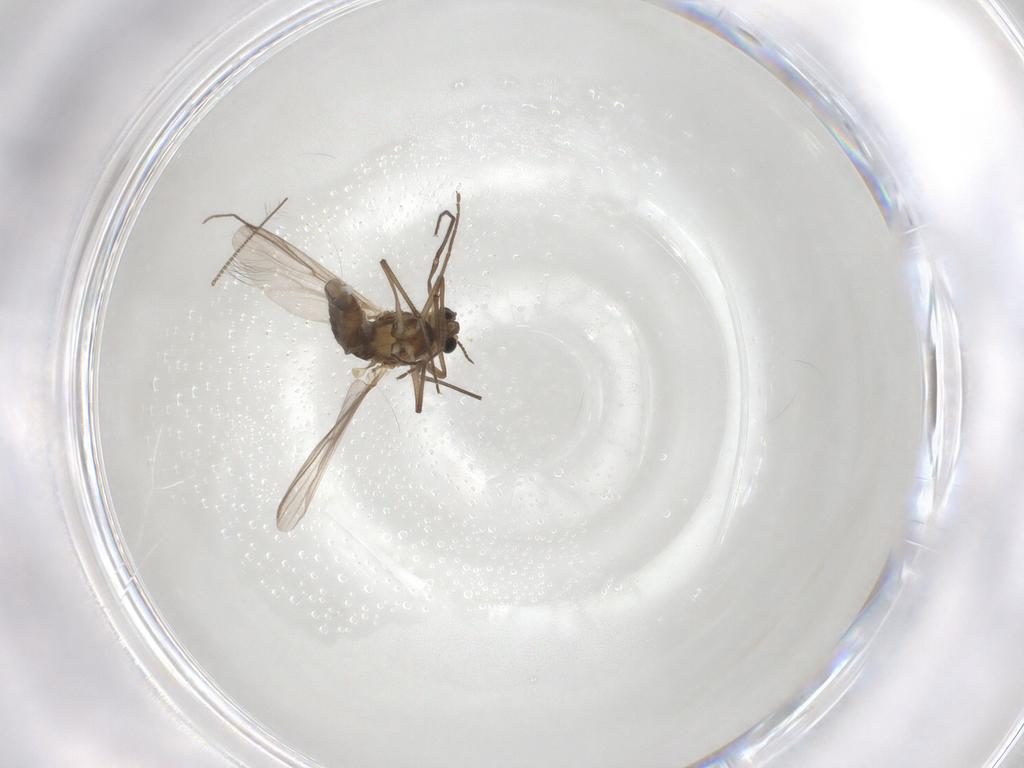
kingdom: Animalia
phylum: Arthropoda
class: Insecta
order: Diptera
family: Chironomidae
